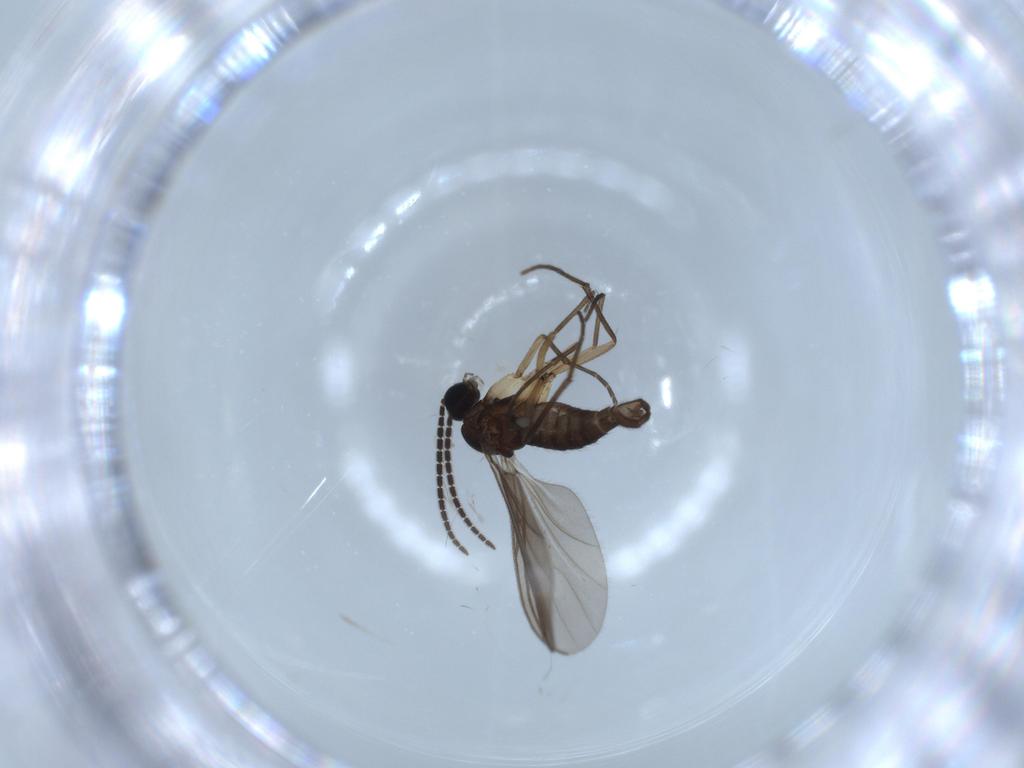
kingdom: Animalia
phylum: Arthropoda
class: Insecta
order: Diptera
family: Sciaridae
